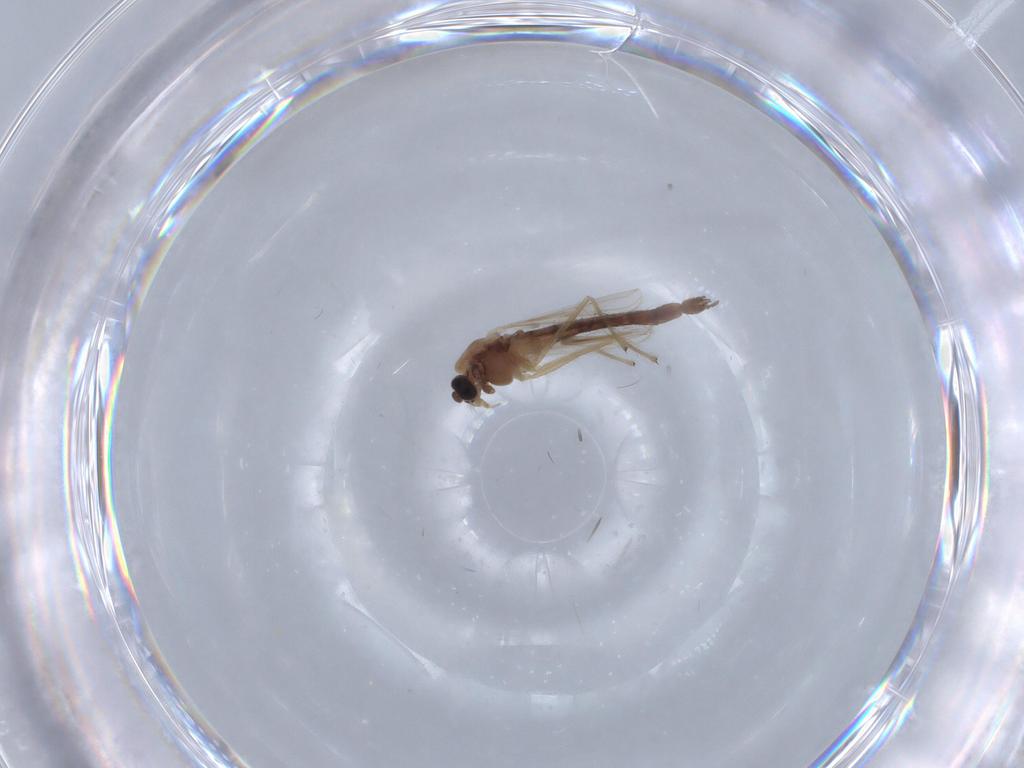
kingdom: Animalia
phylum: Arthropoda
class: Insecta
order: Diptera
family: Chironomidae
